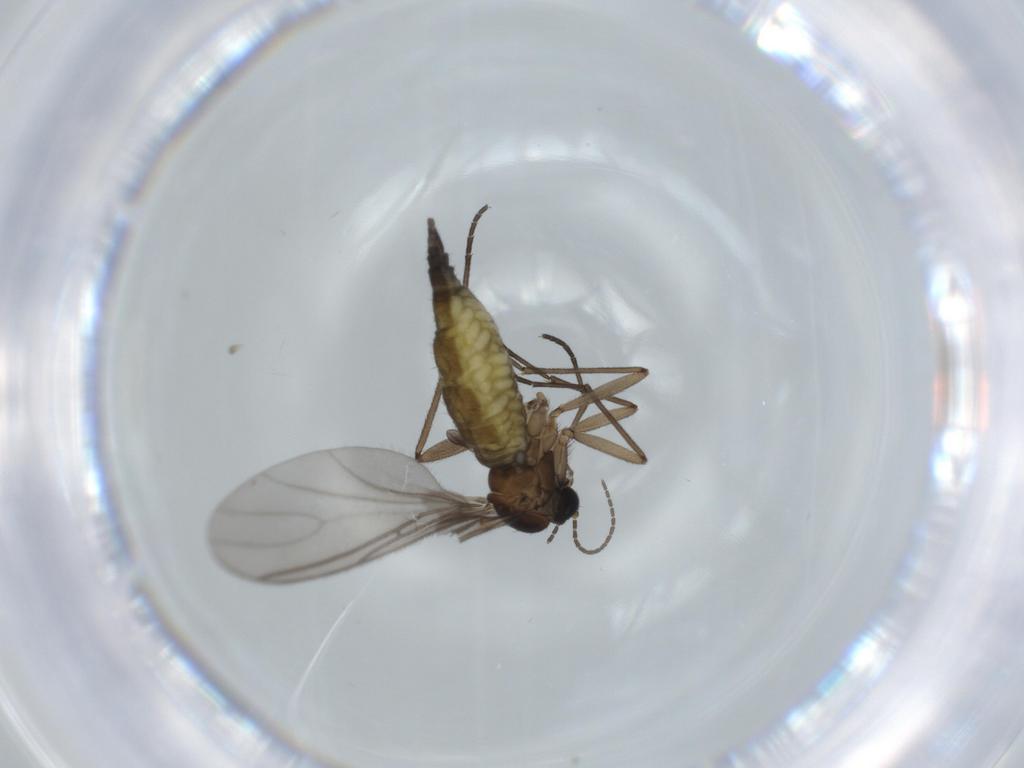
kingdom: Animalia
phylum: Arthropoda
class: Insecta
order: Diptera
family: Sciaridae
